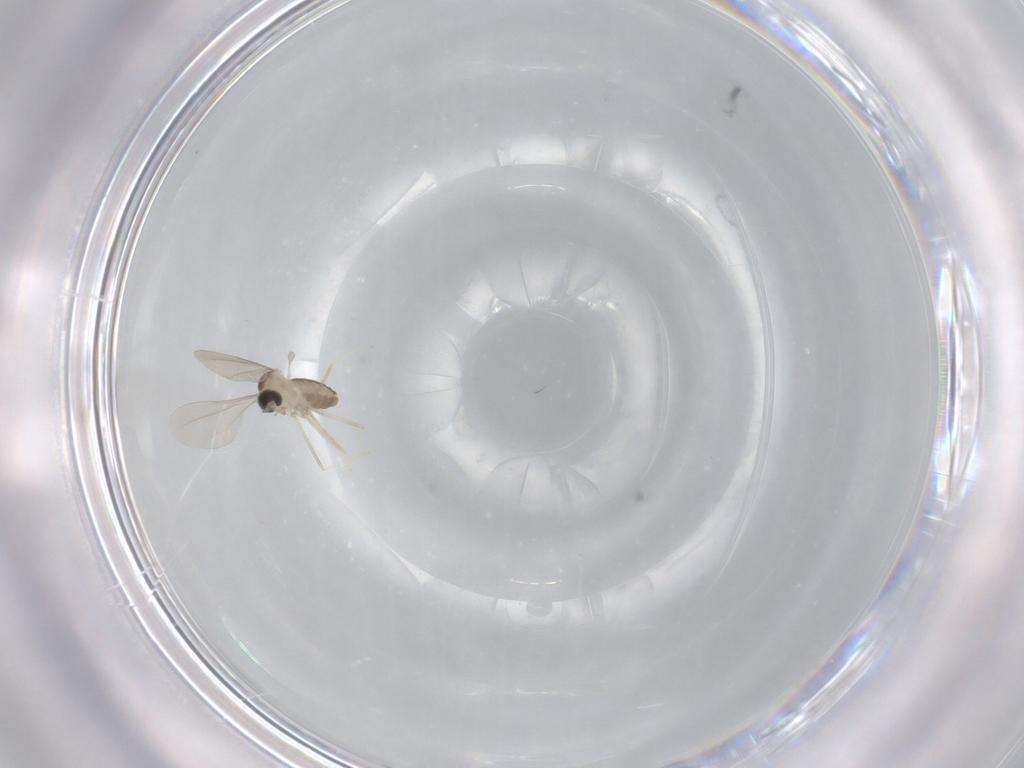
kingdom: Animalia
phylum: Arthropoda
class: Insecta
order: Diptera
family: Cecidomyiidae
